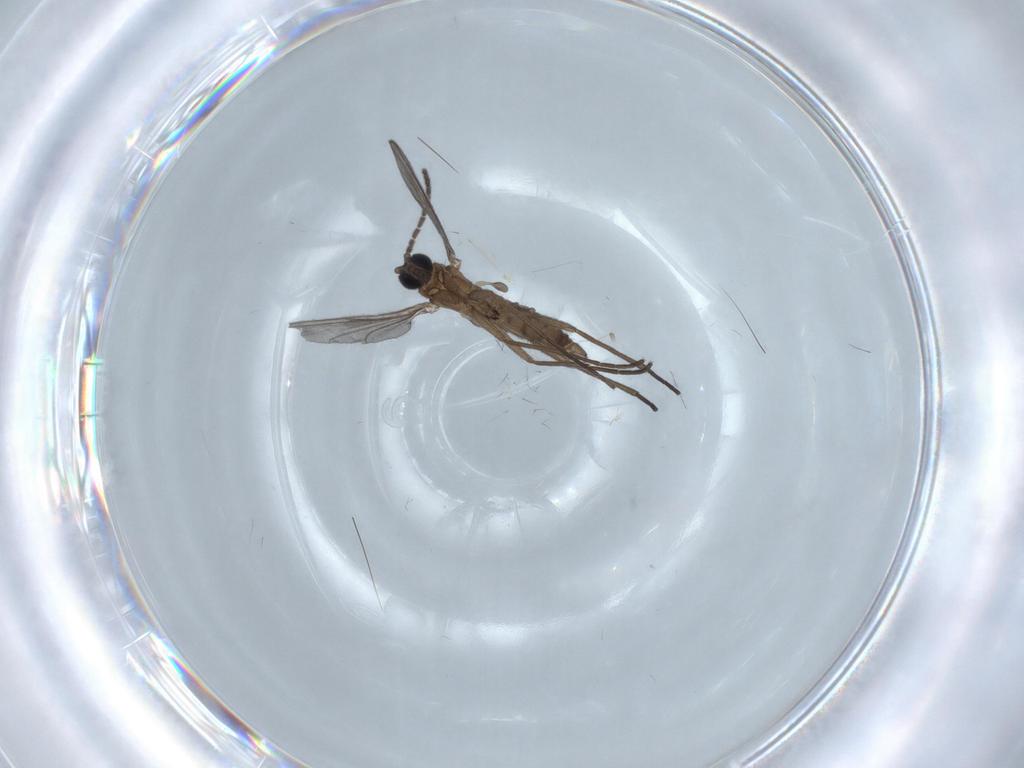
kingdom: Animalia
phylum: Arthropoda
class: Insecta
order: Diptera
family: Sciaridae
